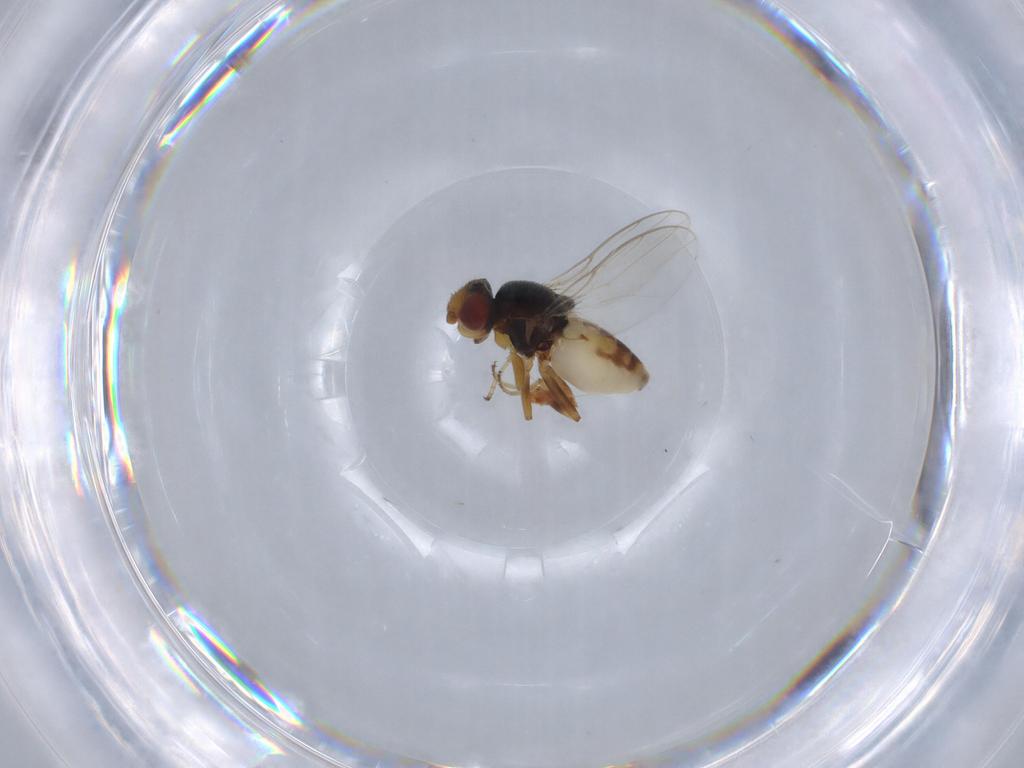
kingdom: Animalia
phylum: Arthropoda
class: Insecta
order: Diptera
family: Chloropidae
